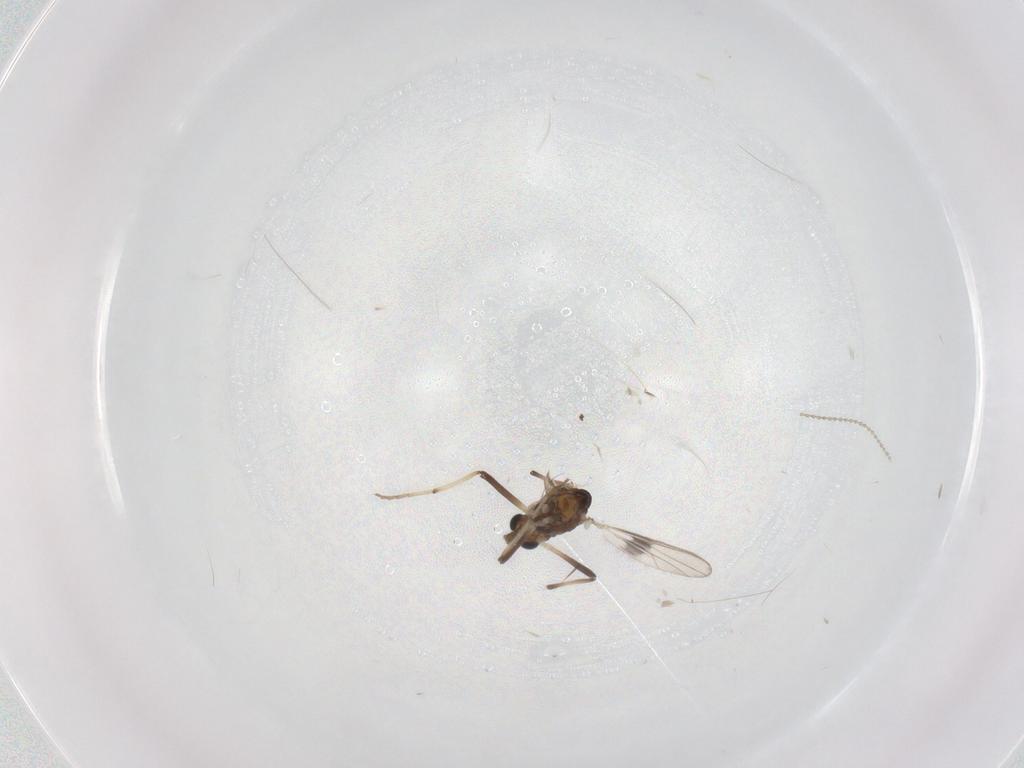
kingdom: Animalia
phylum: Arthropoda
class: Insecta
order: Diptera
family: Chironomidae
